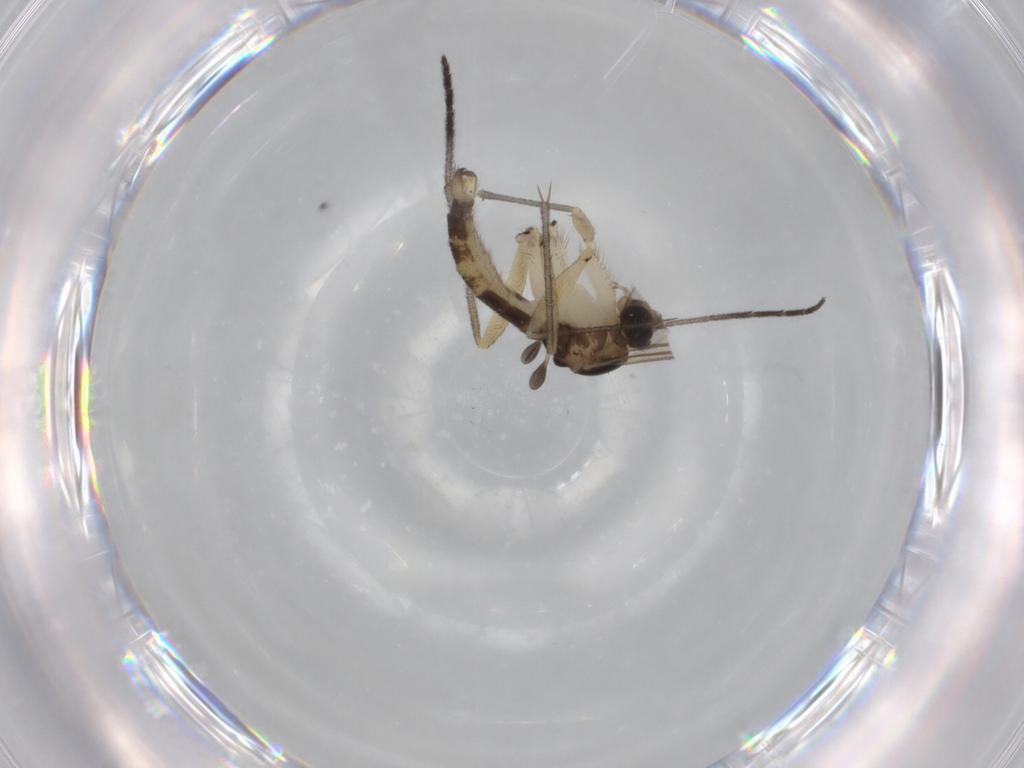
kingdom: Animalia
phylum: Arthropoda
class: Insecta
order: Diptera
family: Sciaridae
